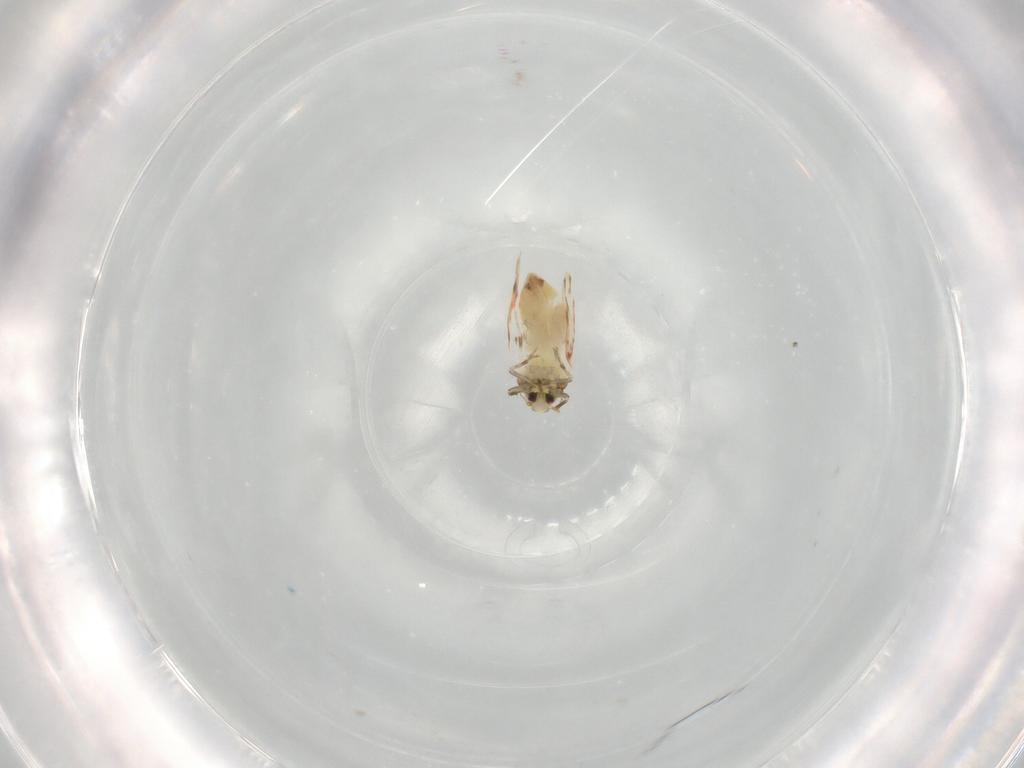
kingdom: Animalia
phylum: Arthropoda
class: Insecta
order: Hemiptera
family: Aleyrodidae
